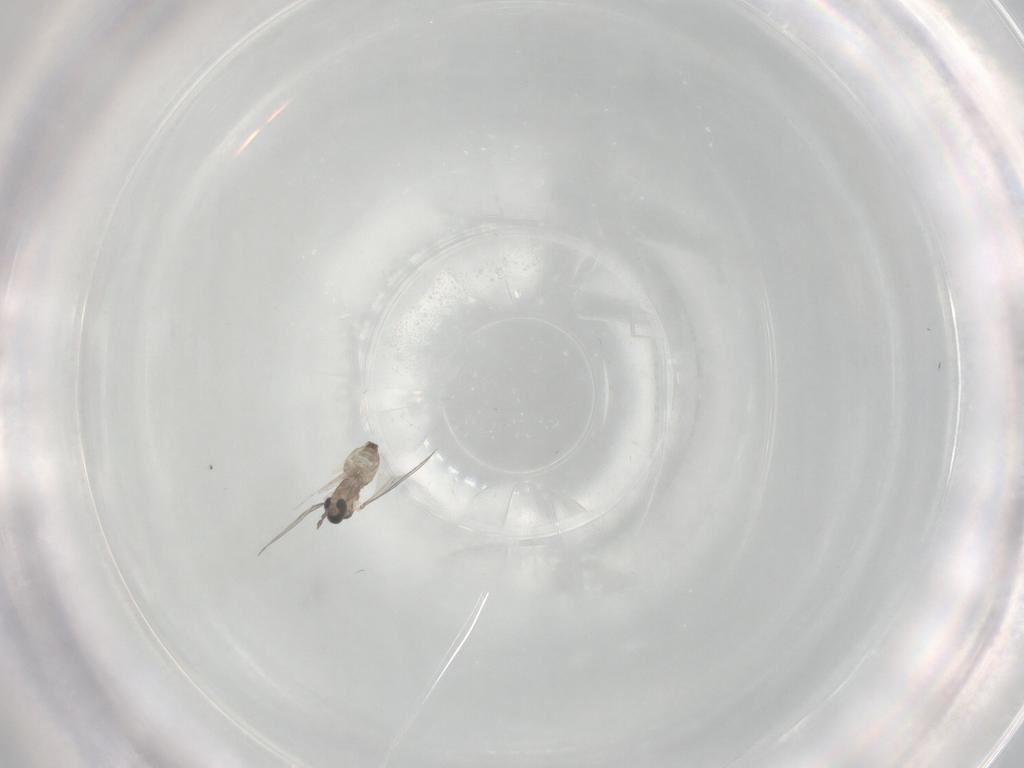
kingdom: Animalia
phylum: Arthropoda
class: Insecta
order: Diptera
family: Cecidomyiidae
